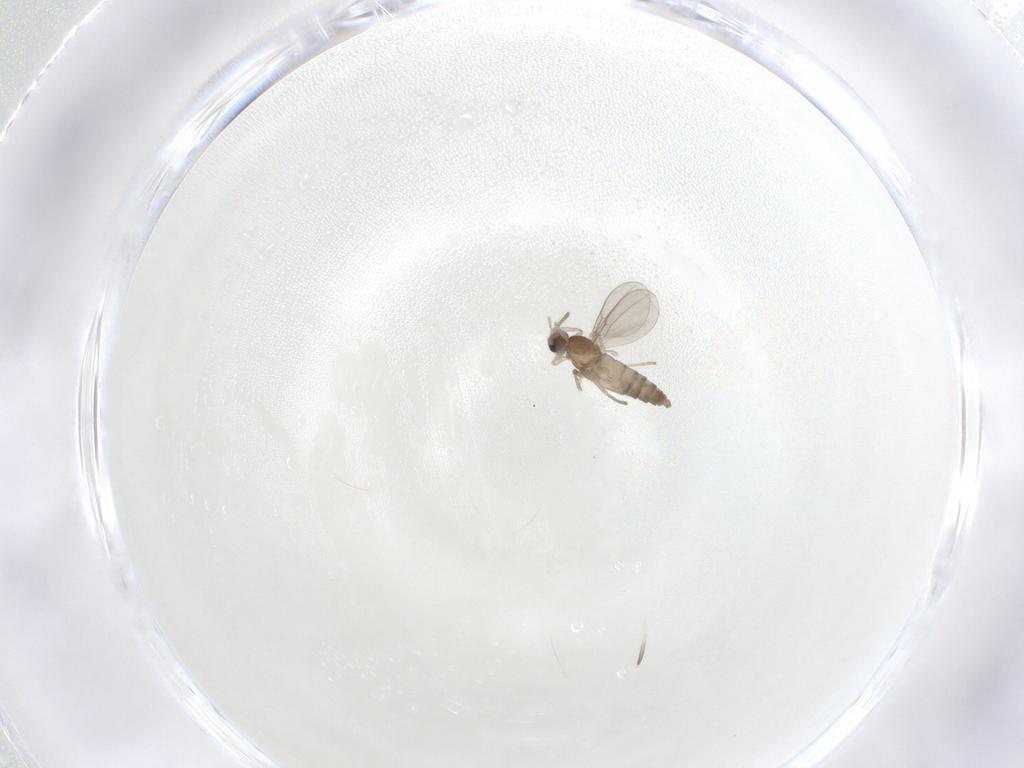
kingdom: Animalia
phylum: Arthropoda
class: Insecta
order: Diptera
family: Cecidomyiidae
